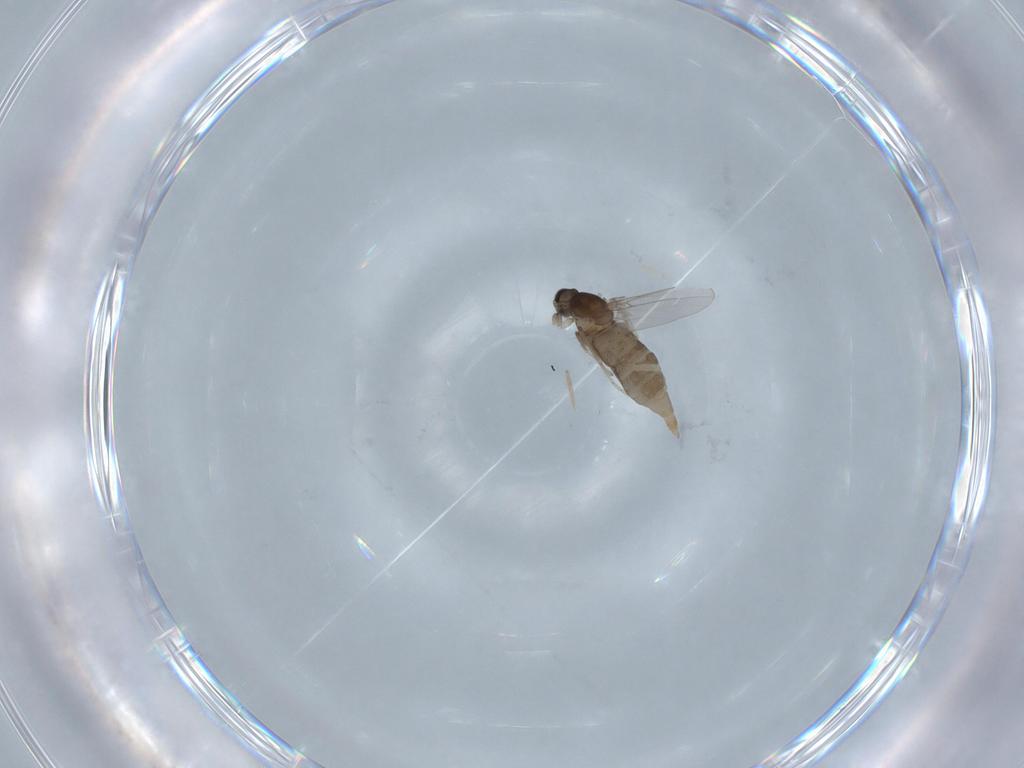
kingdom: Animalia
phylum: Arthropoda
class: Insecta
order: Diptera
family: Cecidomyiidae
